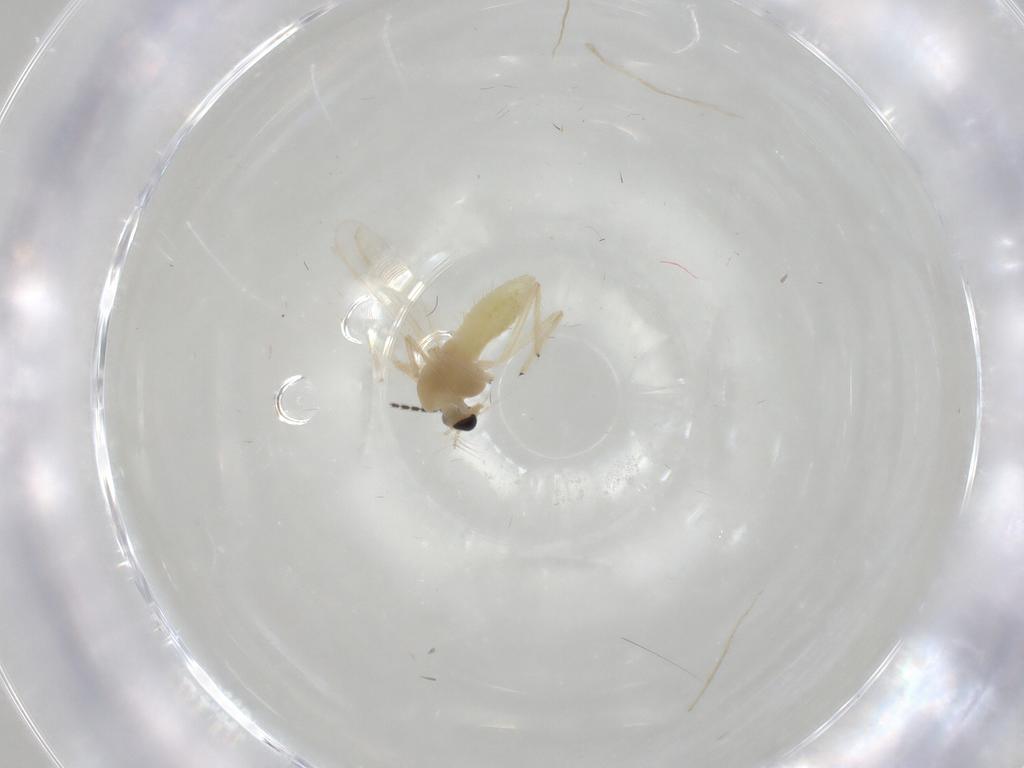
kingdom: Animalia
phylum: Arthropoda
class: Insecta
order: Diptera
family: Chironomidae
